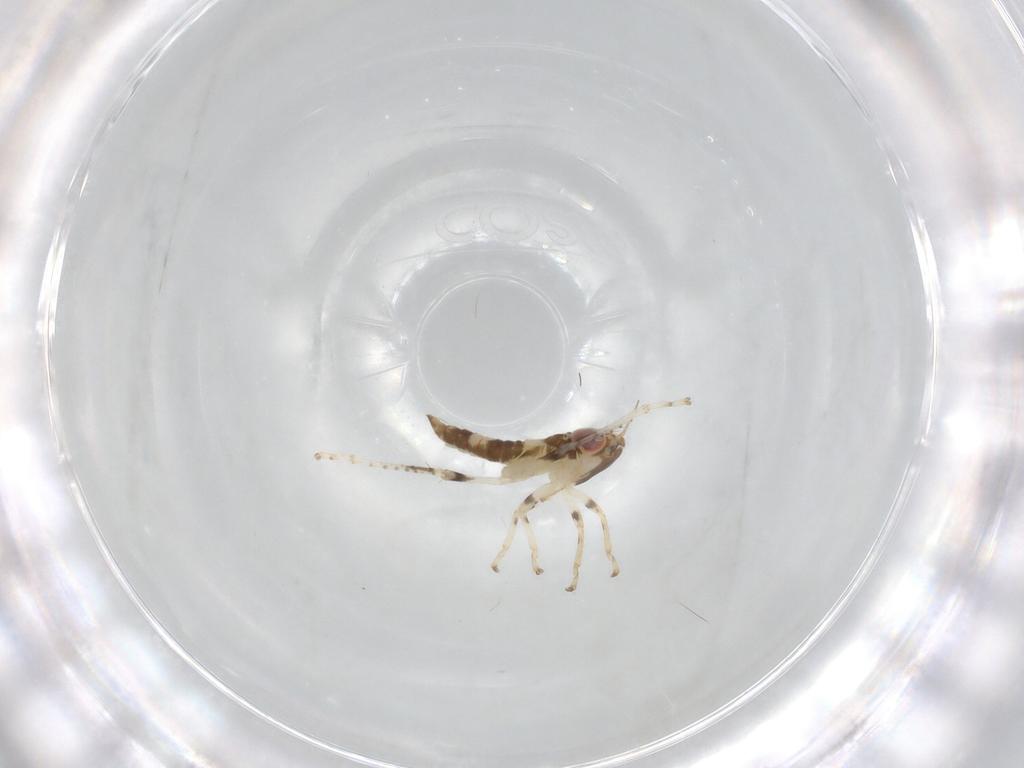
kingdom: Animalia
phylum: Arthropoda
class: Insecta
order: Hemiptera
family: Cicadellidae
